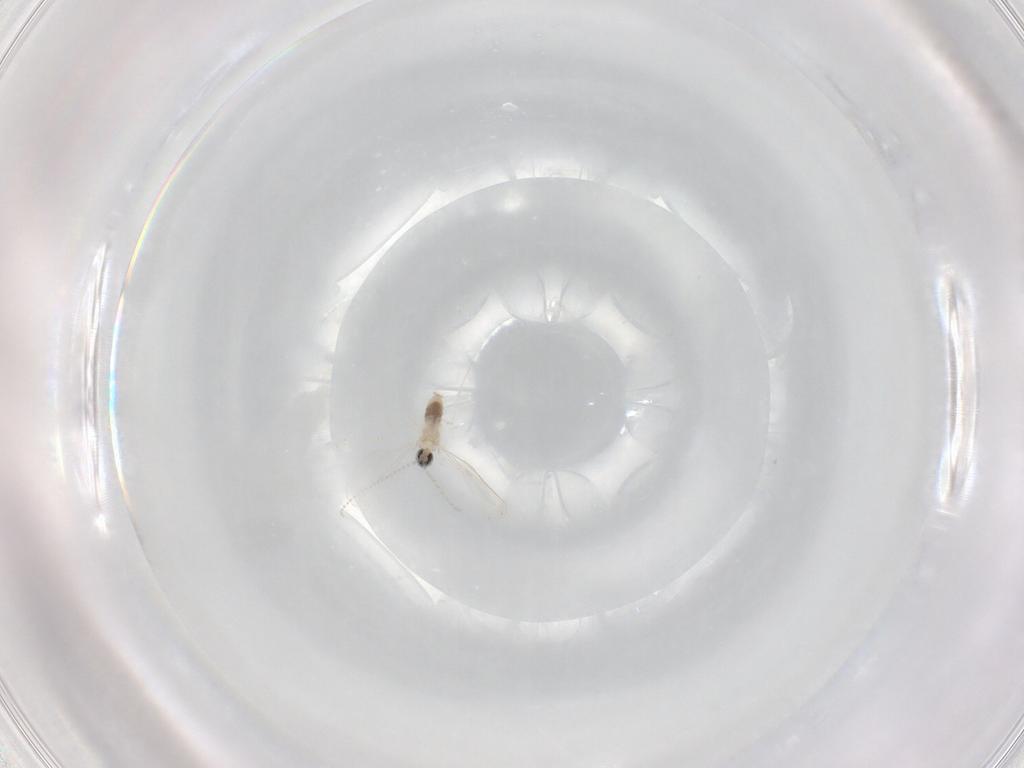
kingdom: Animalia
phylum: Arthropoda
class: Insecta
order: Diptera
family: Cecidomyiidae
